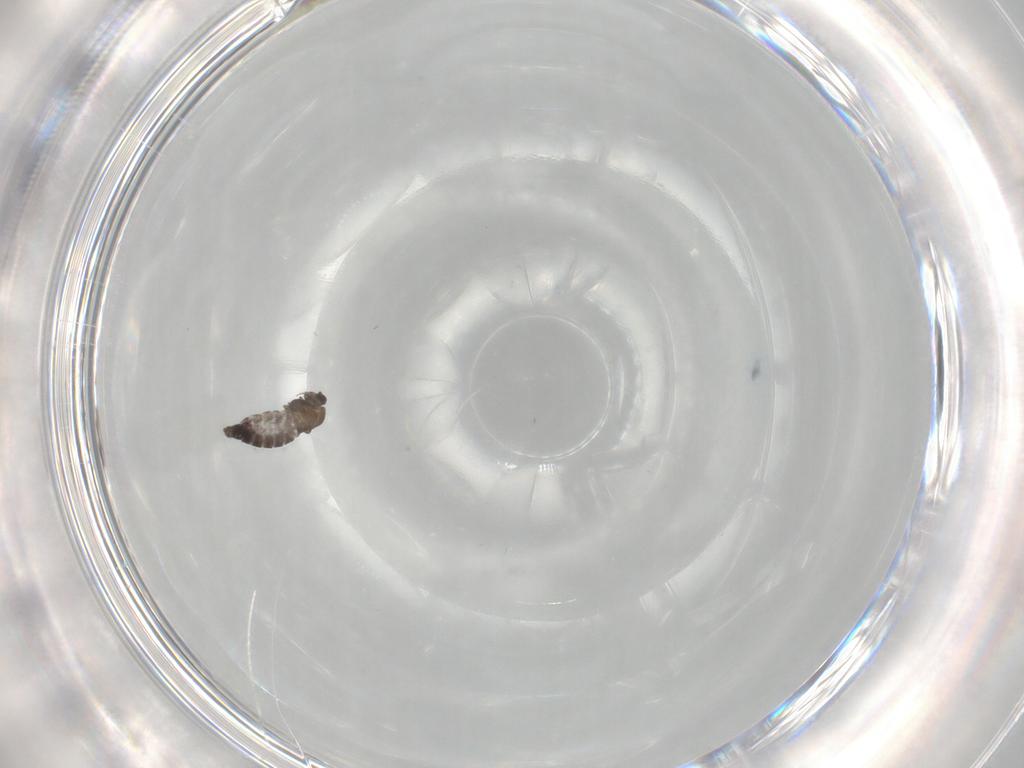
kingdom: Animalia
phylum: Arthropoda
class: Insecta
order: Diptera
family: Chironomidae
